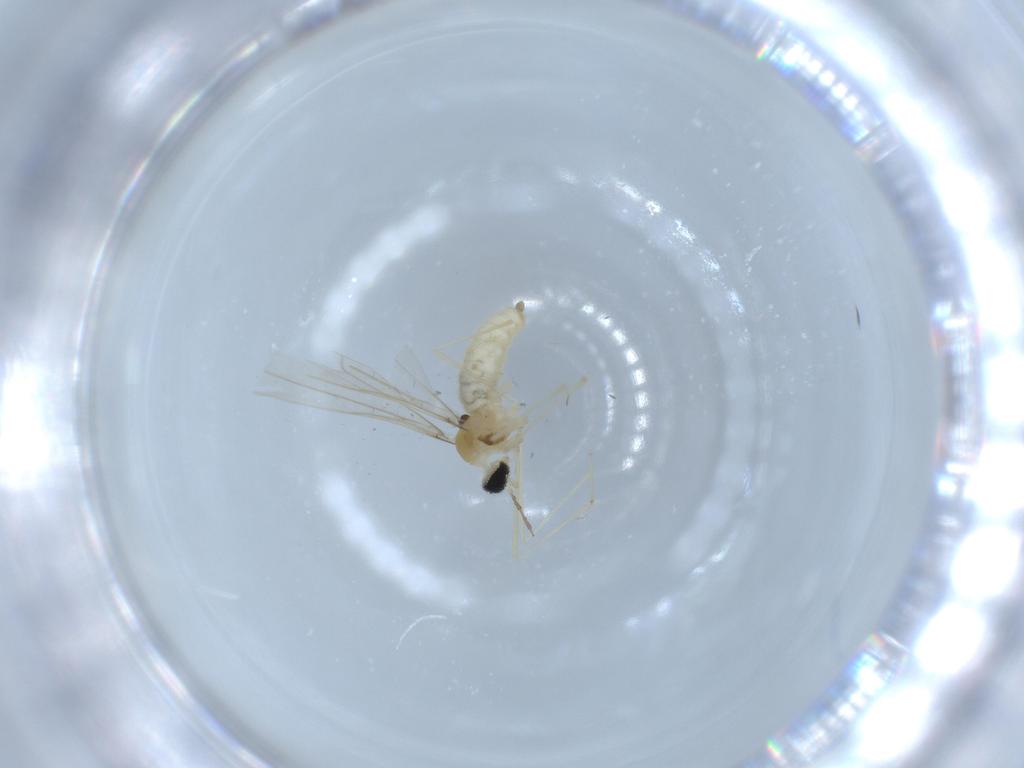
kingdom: Animalia
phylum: Arthropoda
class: Insecta
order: Diptera
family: Cecidomyiidae
